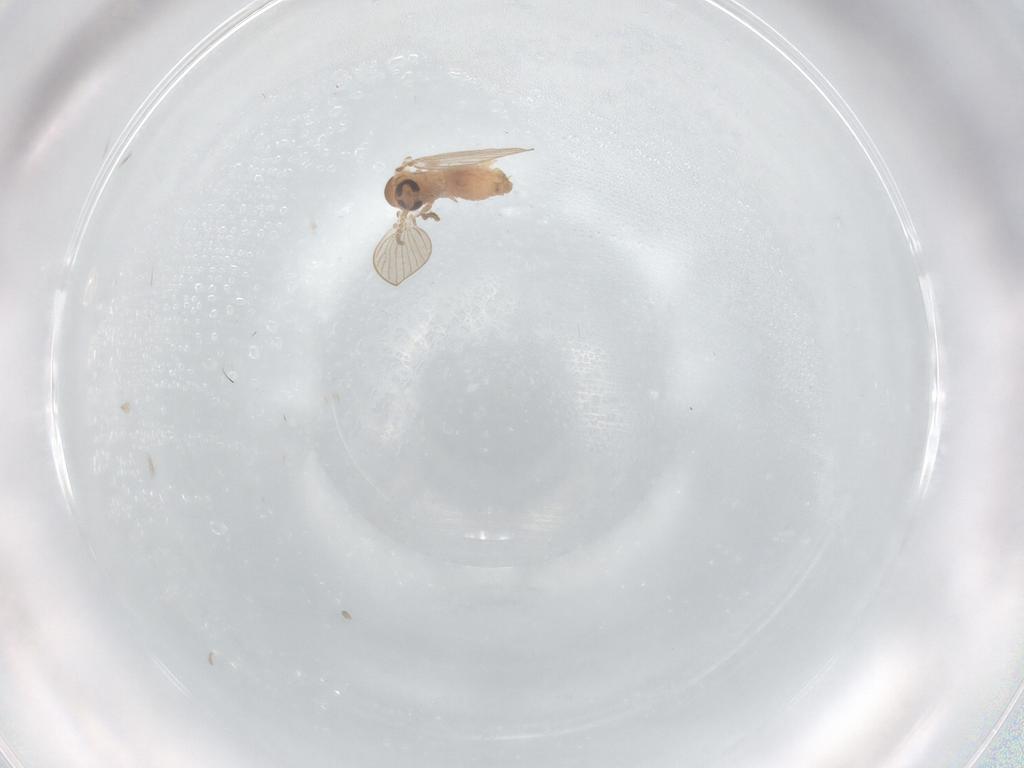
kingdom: Animalia
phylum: Arthropoda
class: Insecta
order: Diptera
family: Psychodidae
